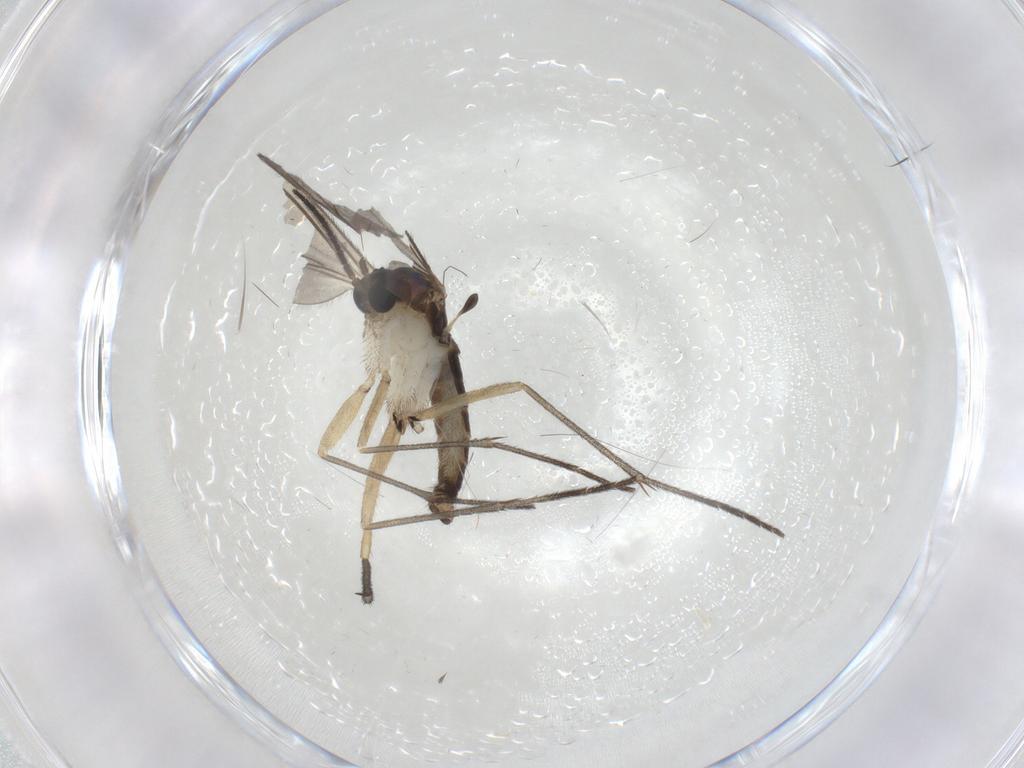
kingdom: Animalia
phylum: Arthropoda
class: Insecta
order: Diptera
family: Sciaridae
